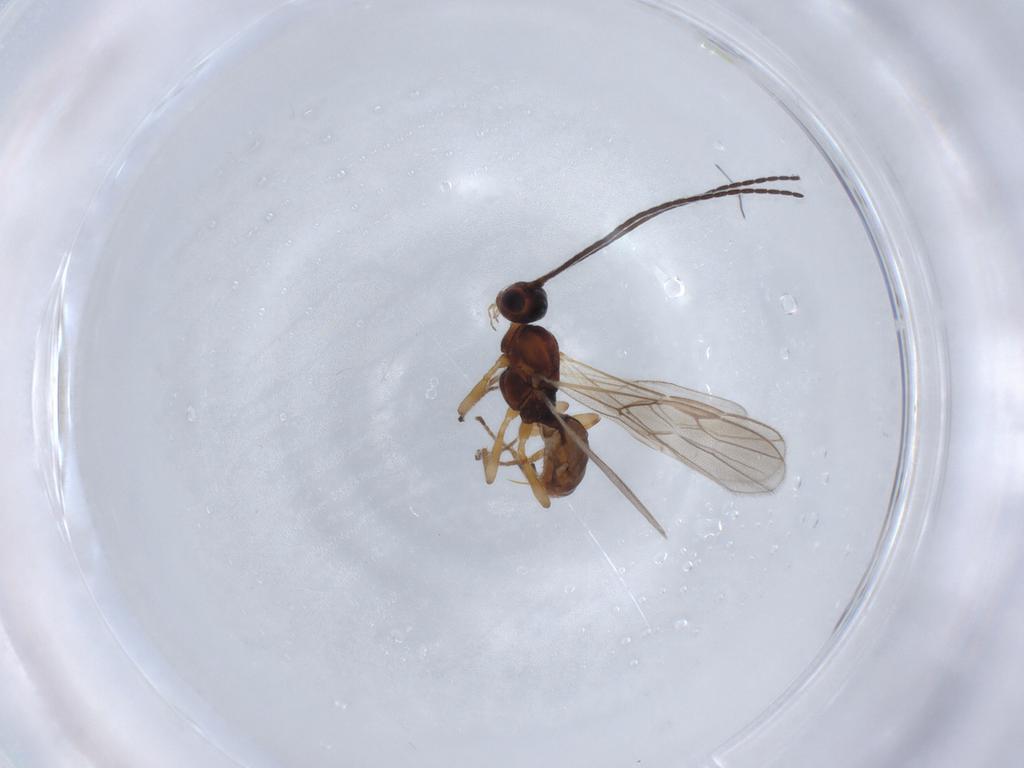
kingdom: Animalia
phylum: Arthropoda
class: Insecta
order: Hymenoptera
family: Braconidae
